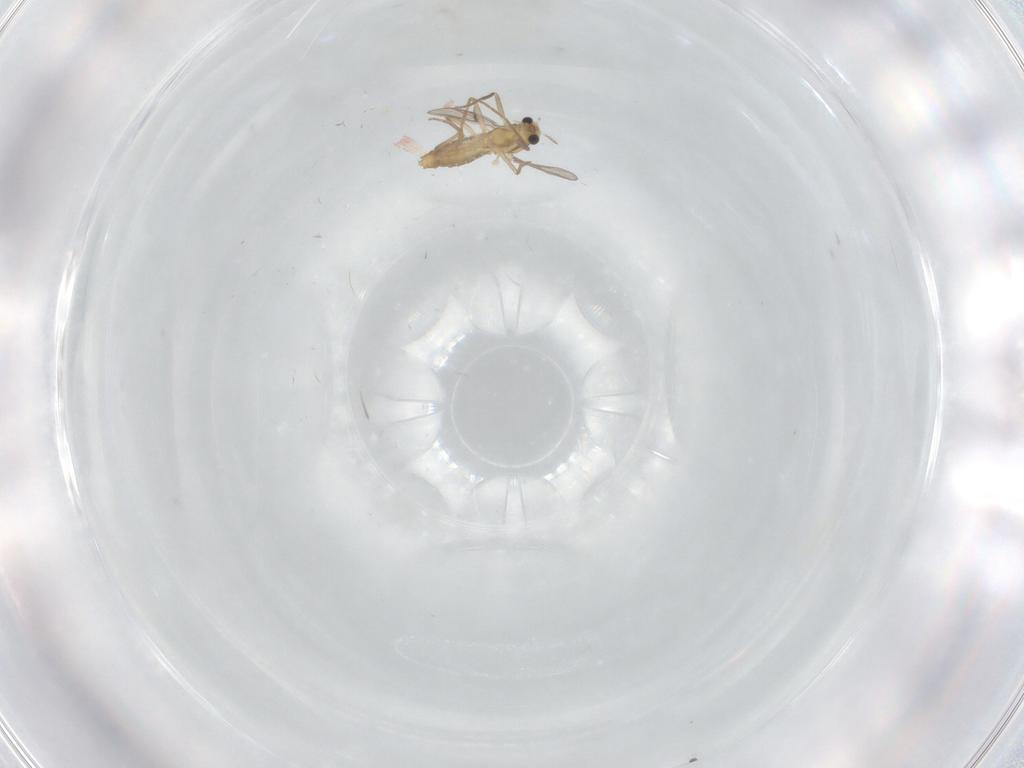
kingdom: Animalia
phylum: Arthropoda
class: Insecta
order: Diptera
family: Chironomidae
